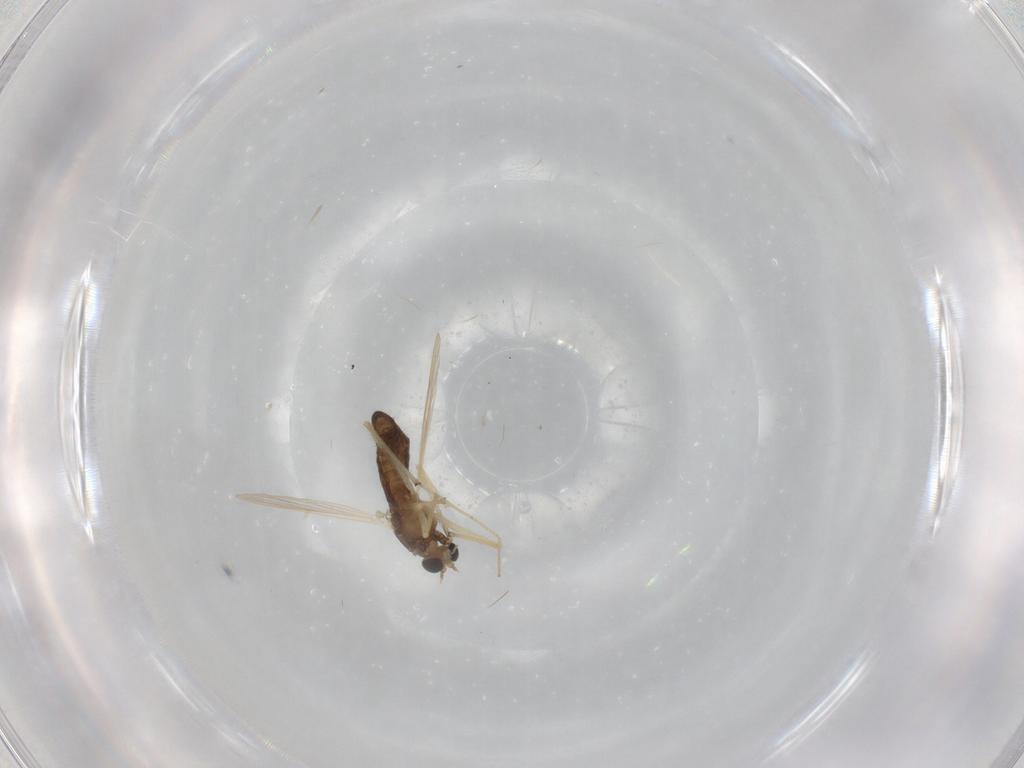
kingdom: Animalia
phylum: Arthropoda
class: Insecta
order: Diptera
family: Chironomidae
